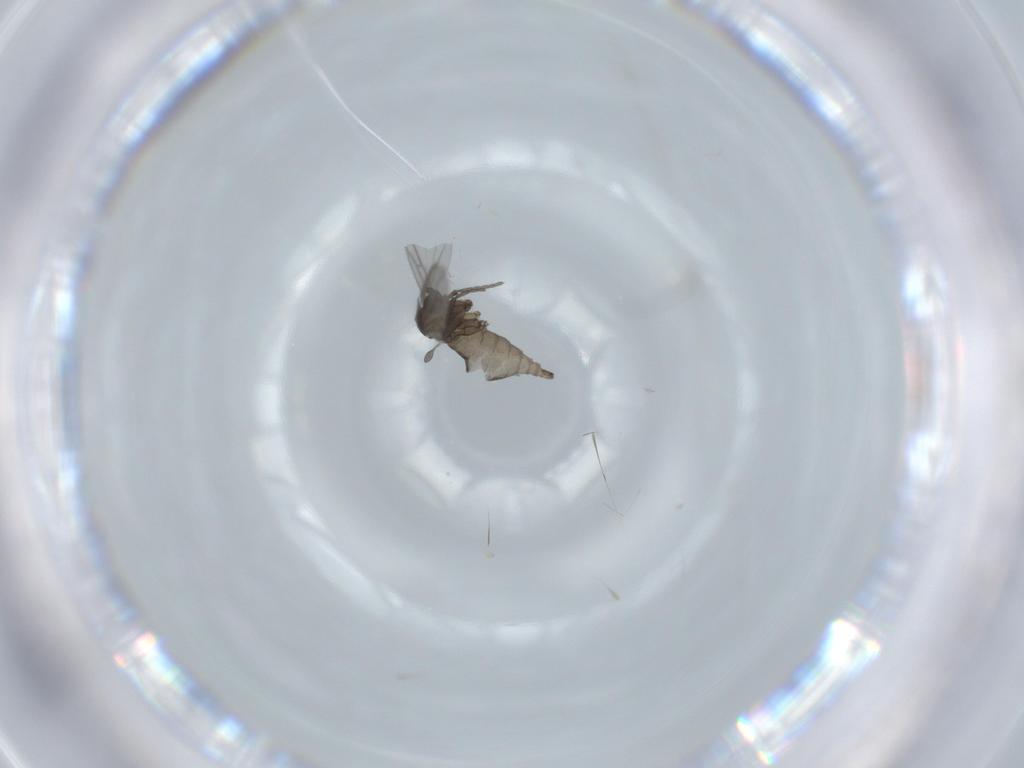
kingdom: Animalia
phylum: Arthropoda
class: Insecta
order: Diptera
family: Sciaridae
